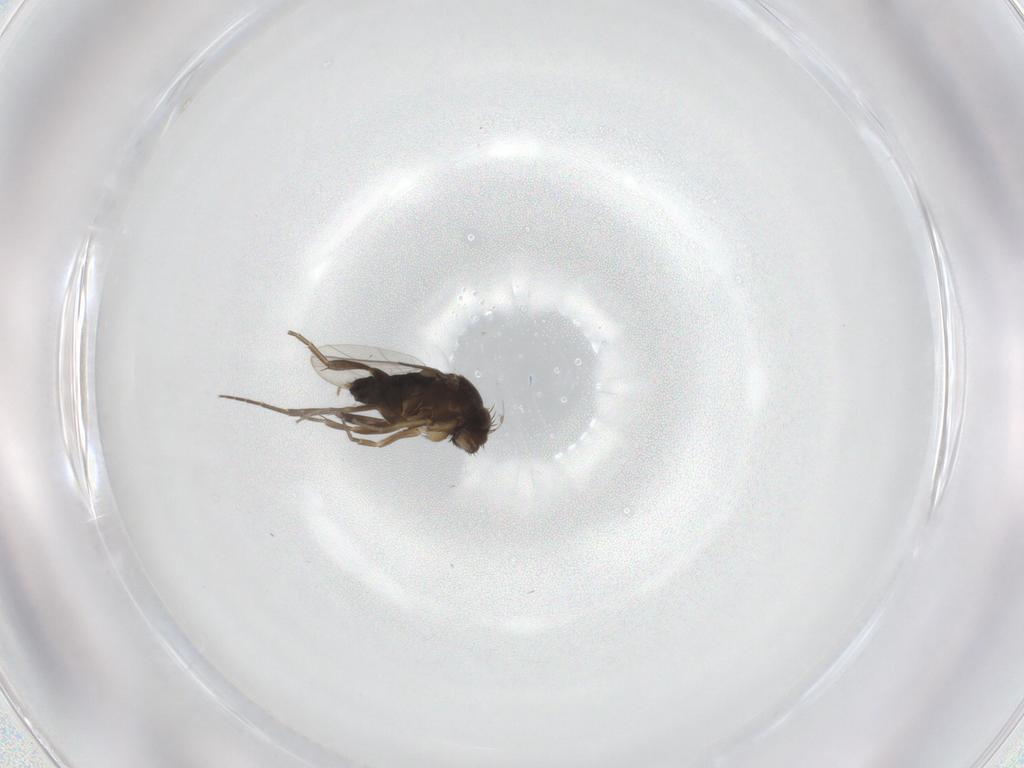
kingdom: Animalia
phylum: Arthropoda
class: Insecta
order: Diptera
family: Phoridae
